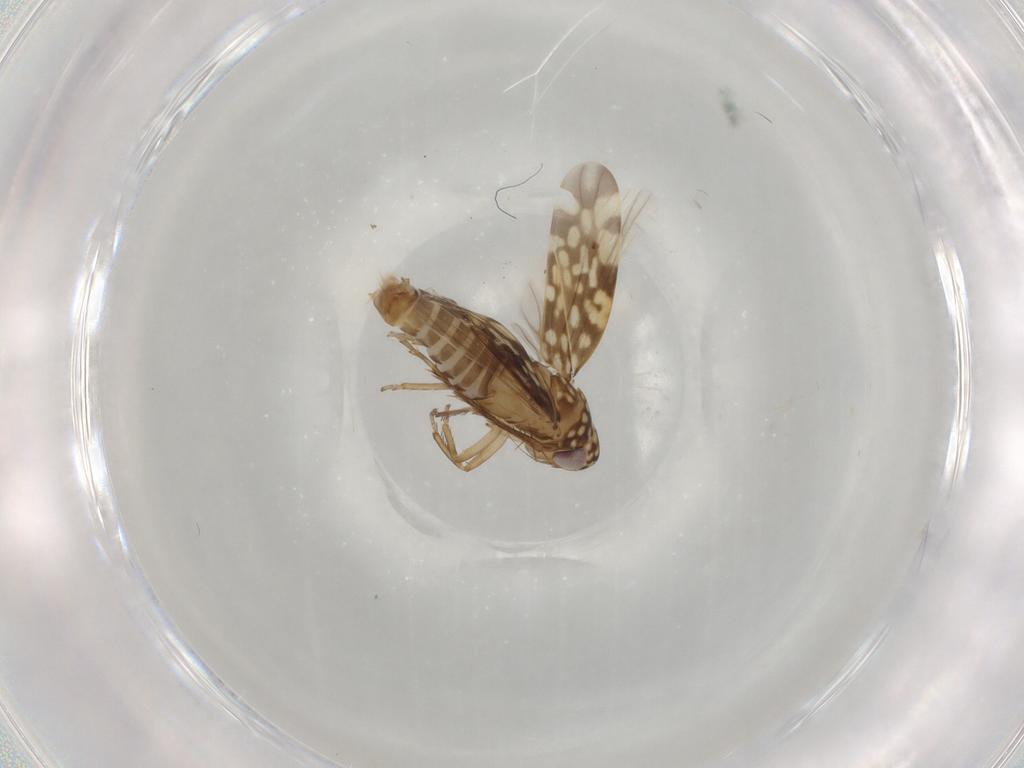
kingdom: Animalia
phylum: Arthropoda
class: Insecta
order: Hemiptera
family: Cicadellidae
